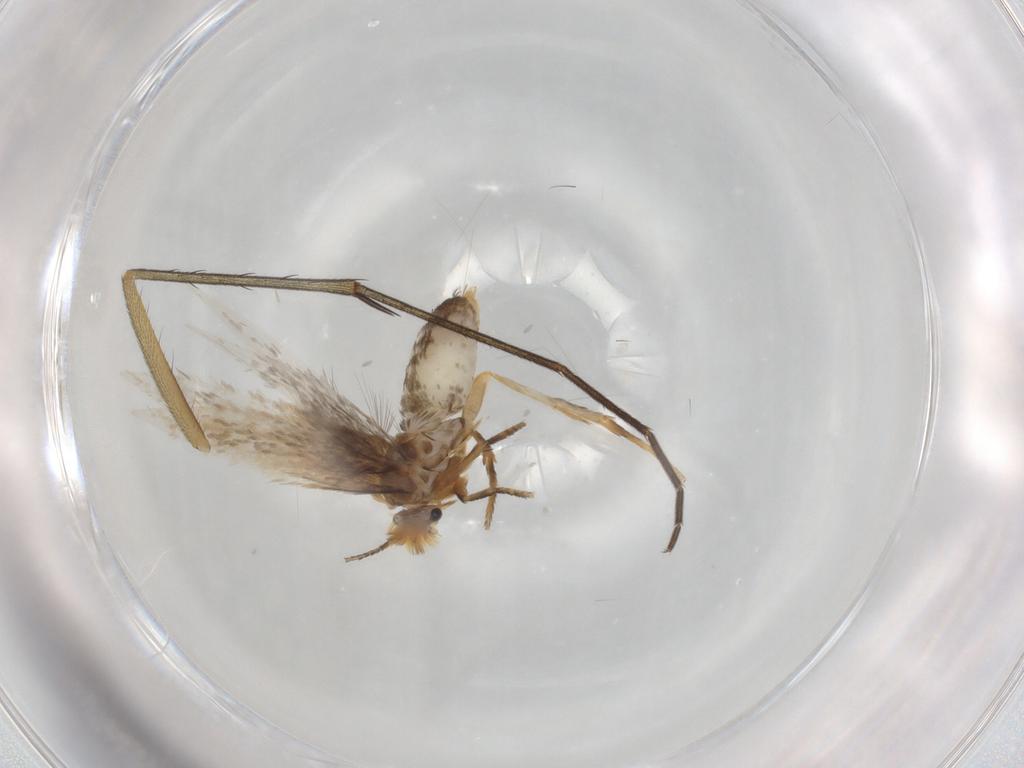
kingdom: Animalia
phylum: Arthropoda
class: Insecta
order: Lepidoptera
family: Nepticulidae
